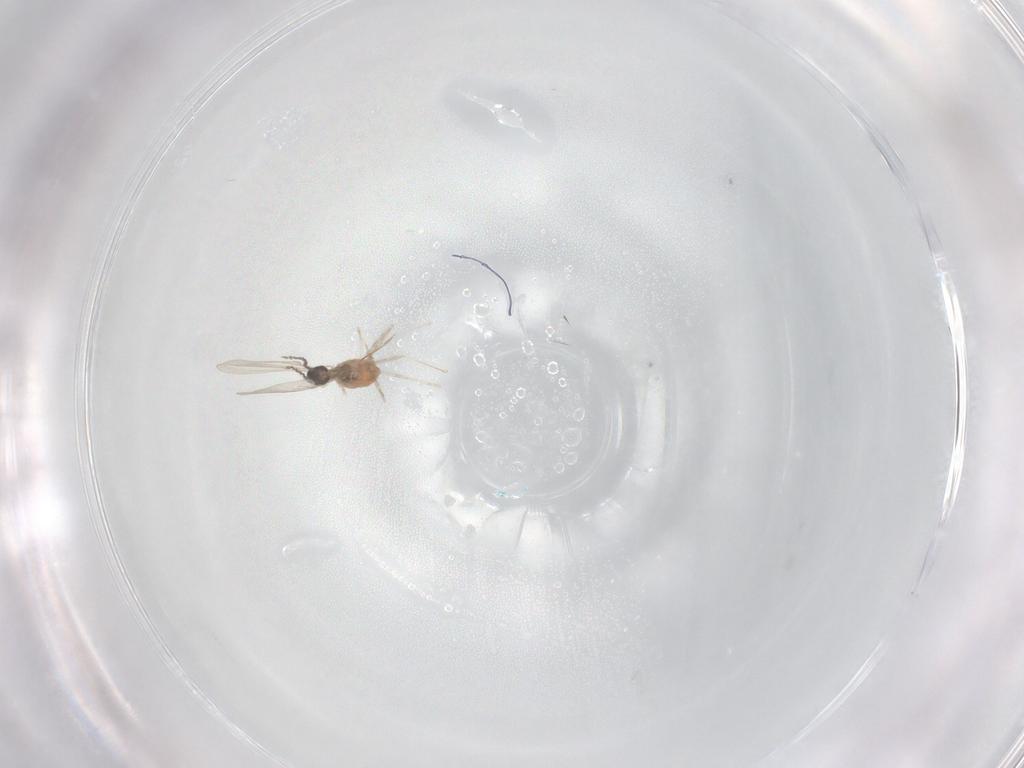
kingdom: Animalia
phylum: Arthropoda
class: Insecta
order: Diptera
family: Cecidomyiidae
